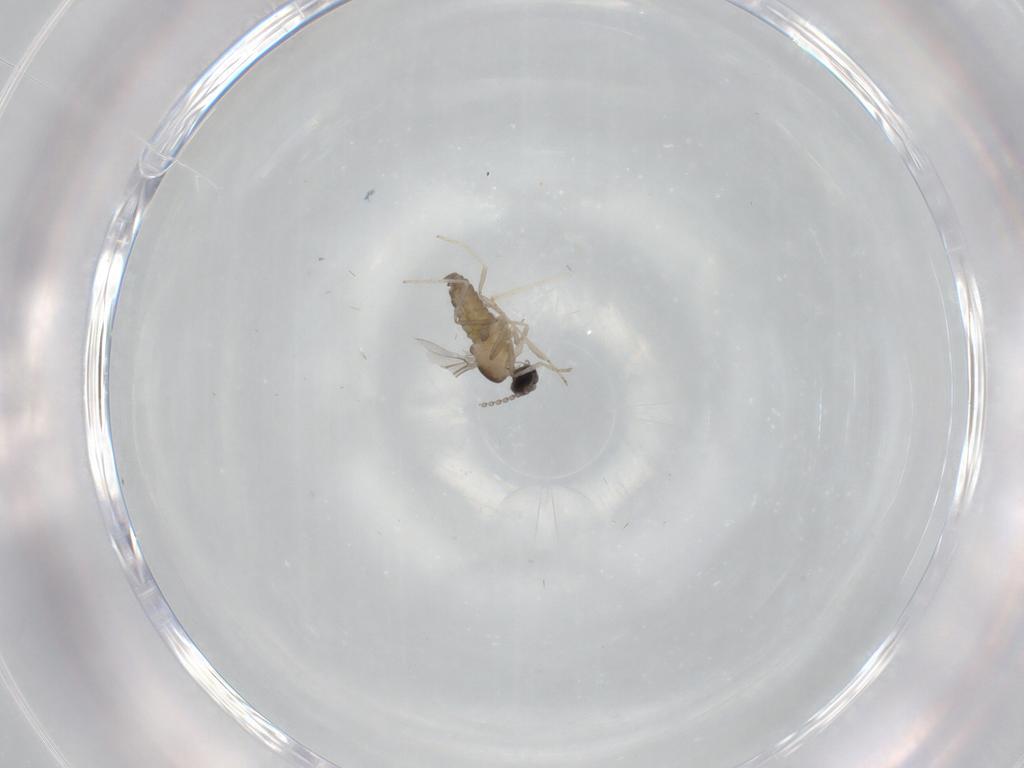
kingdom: Animalia
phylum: Arthropoda
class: Insecta
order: Diptera
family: Cecidomyiidae
